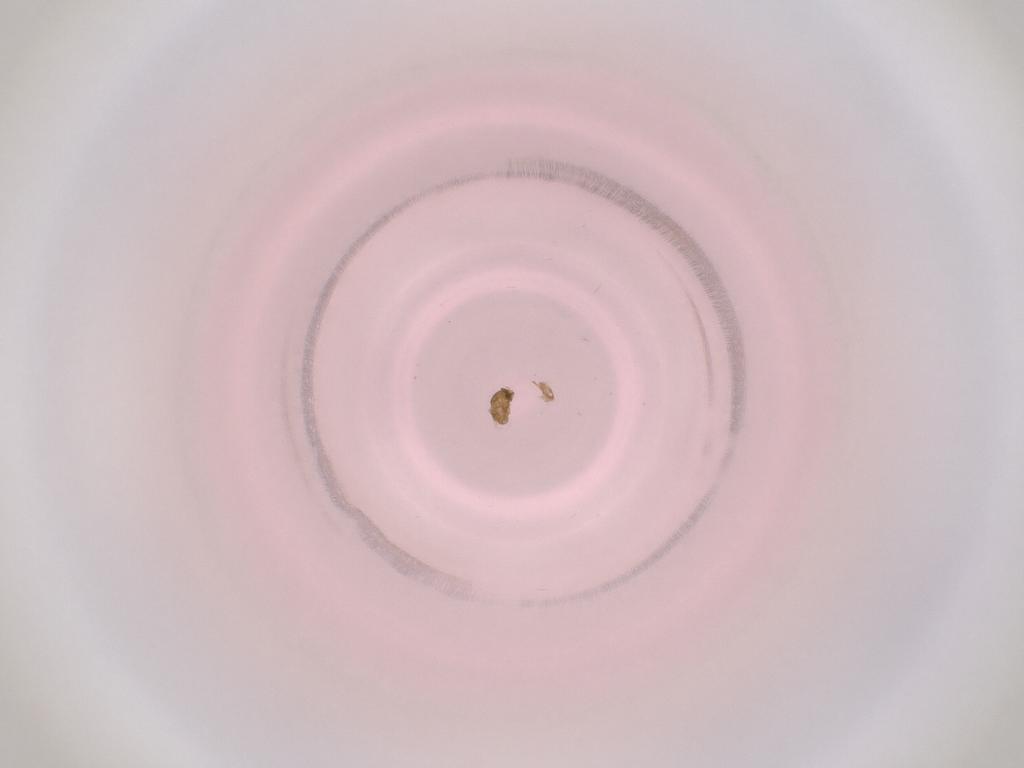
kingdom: Animalia
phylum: Arthropoda
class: Insecta
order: Diptera
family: Cecidomyiidae
